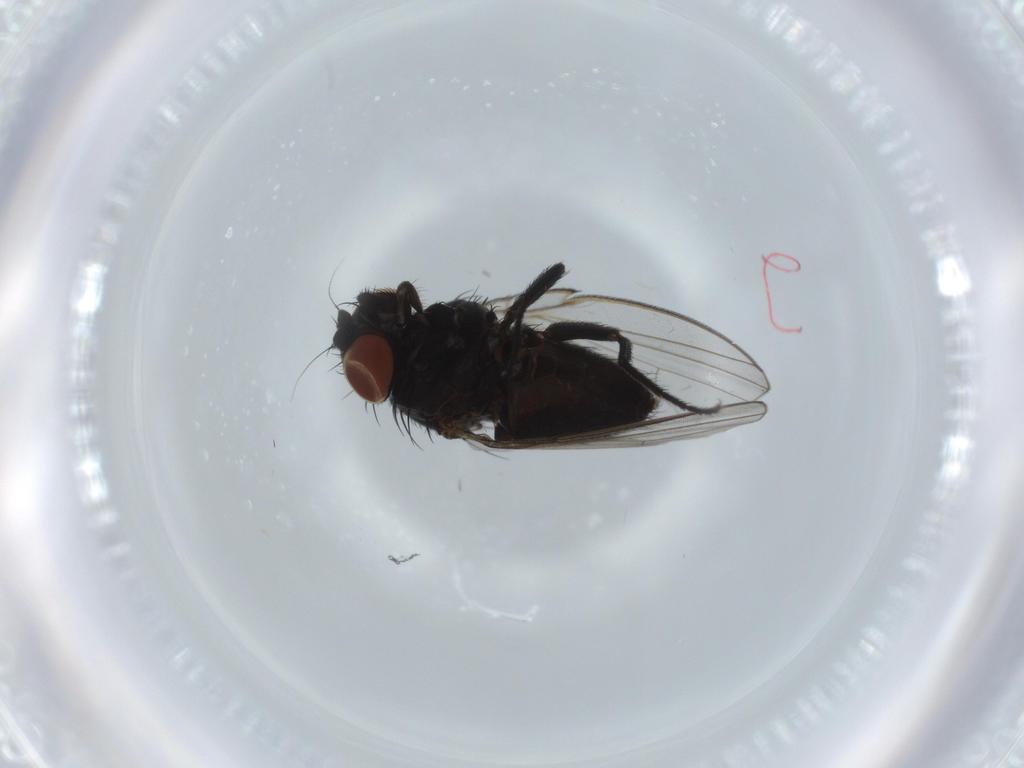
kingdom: Animalia
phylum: Arthropoda
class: Insecta
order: Diptera
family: Milichiidae
